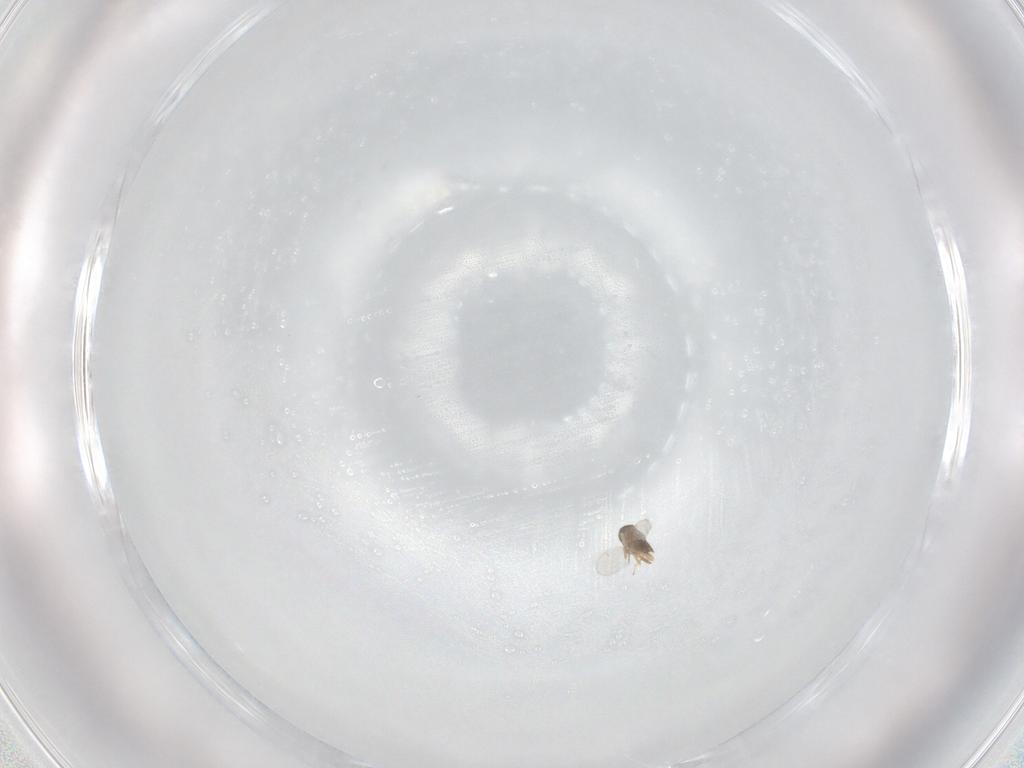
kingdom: Animalia
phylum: Arthropoda
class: Insecta
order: Hymenoptera
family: Encyrtidae
